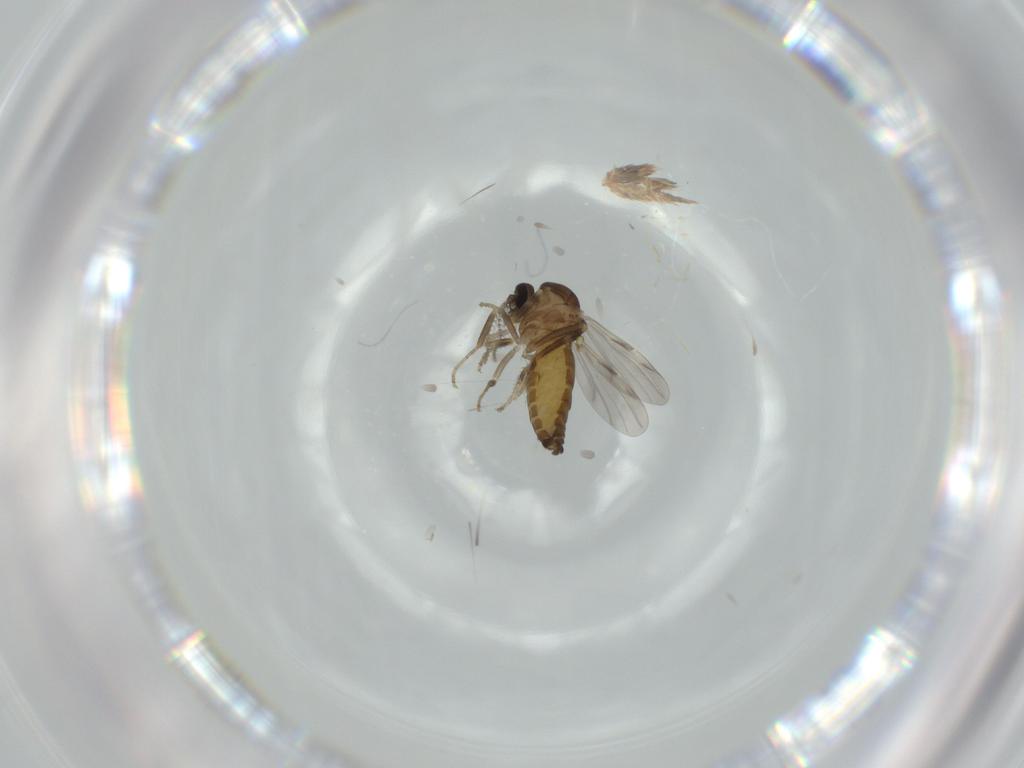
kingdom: Animalia
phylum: Arthropoda
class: Insecta
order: Diptera
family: Ceratopogonidae
